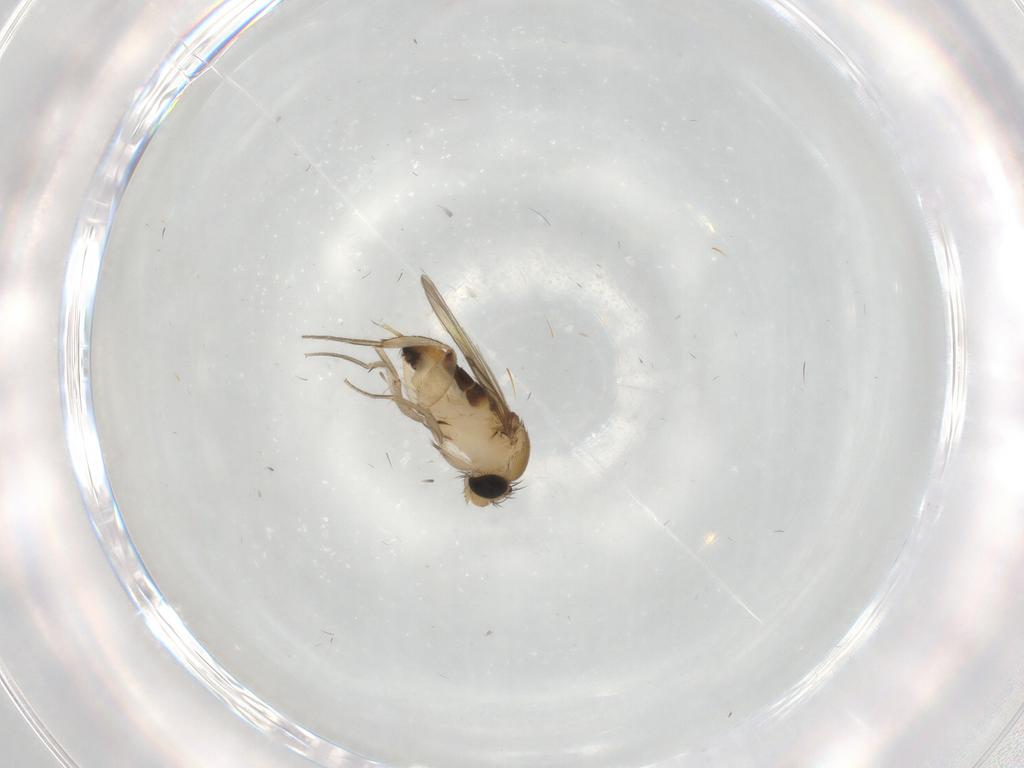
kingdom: Animalia
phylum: Arthropoda
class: Insecta
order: Diptera
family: Phoridae
